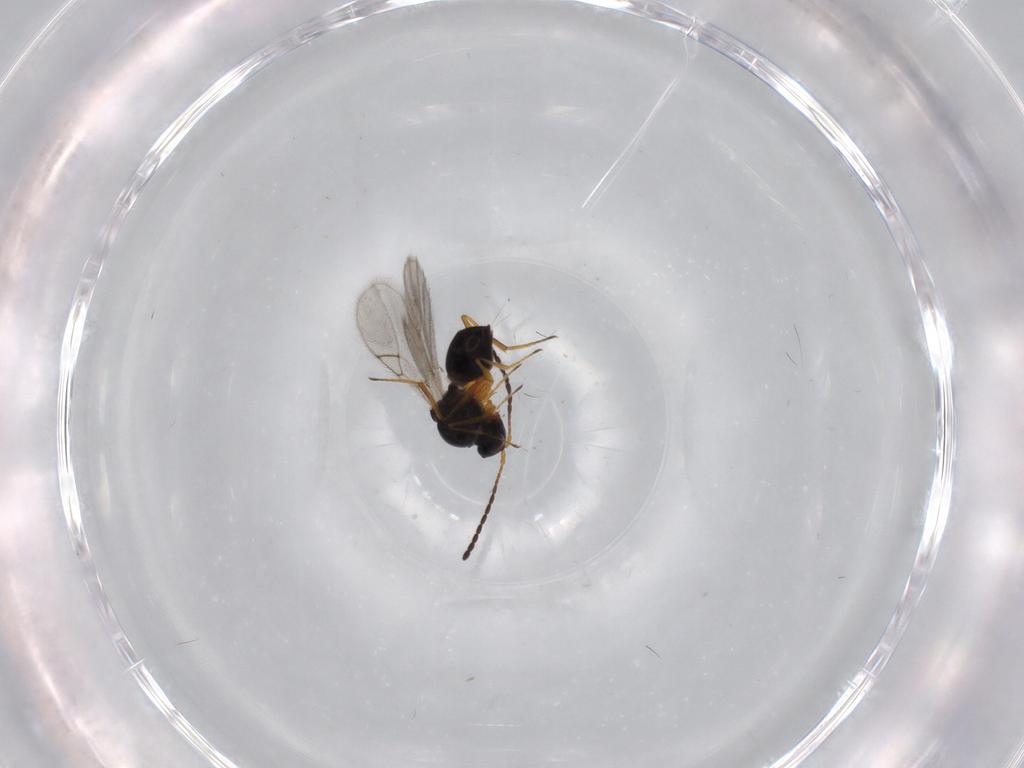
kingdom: Animalia
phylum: Arthropoda
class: Insecta
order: Hymenoptera
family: Figitidae
